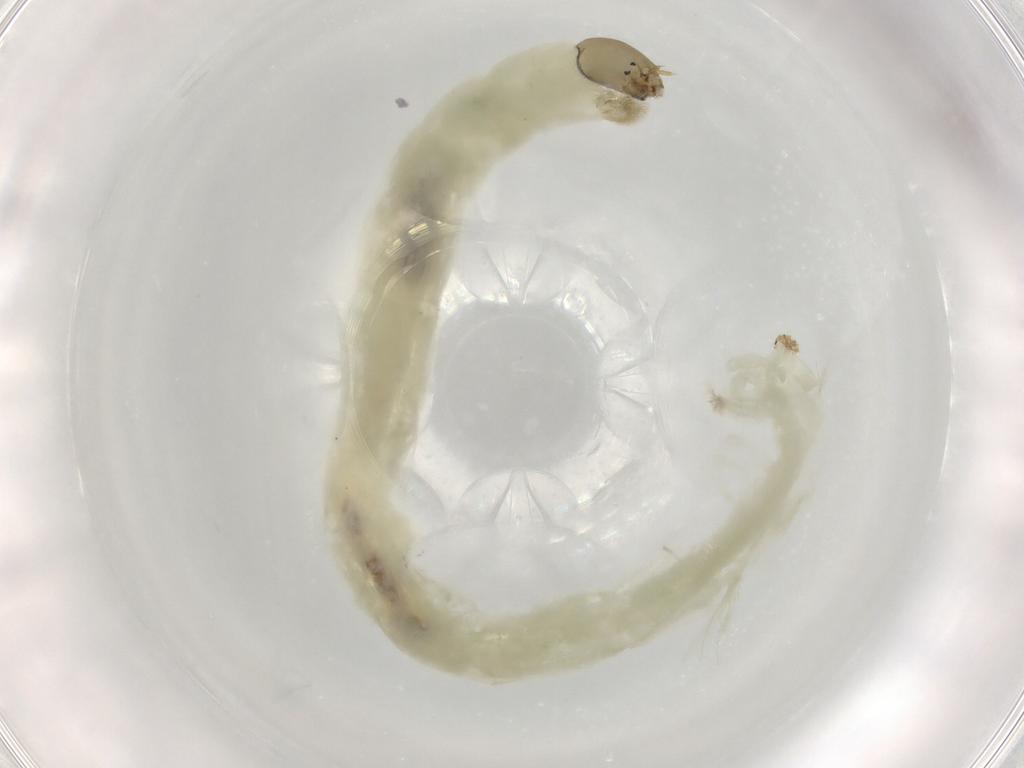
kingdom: Animalia
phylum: Arthropoda
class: Insecta
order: Diptera
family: Chironomidae
